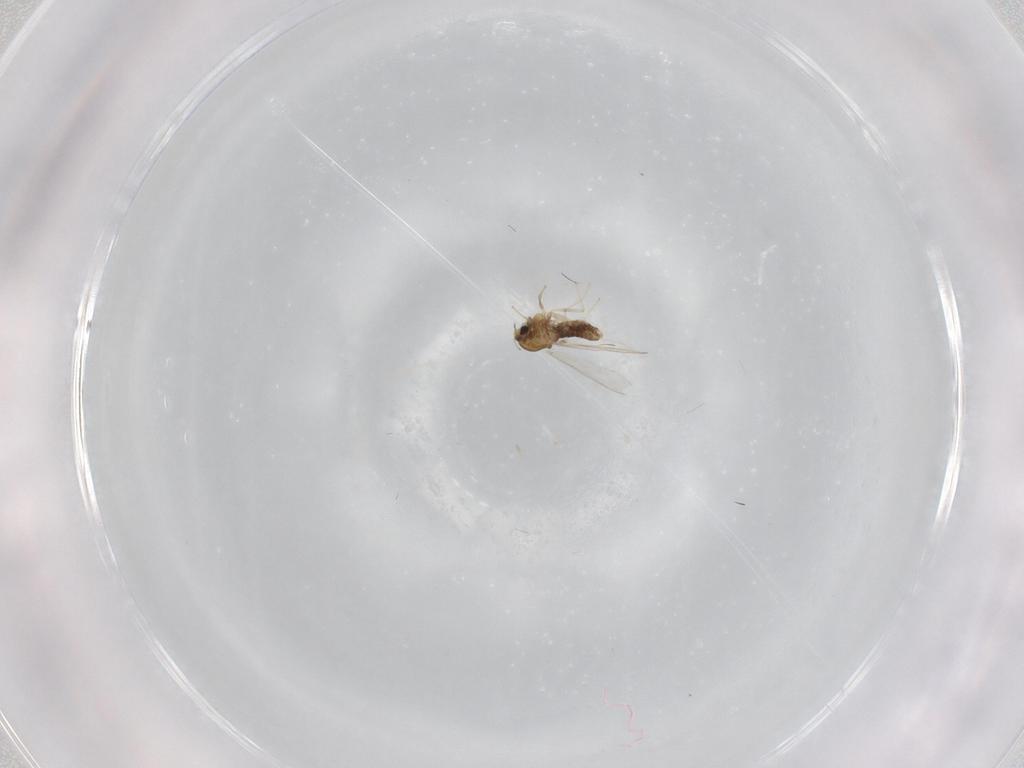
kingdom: Animalia
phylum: Arthropoda
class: Insecta
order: Diptera
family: Chironomidae
